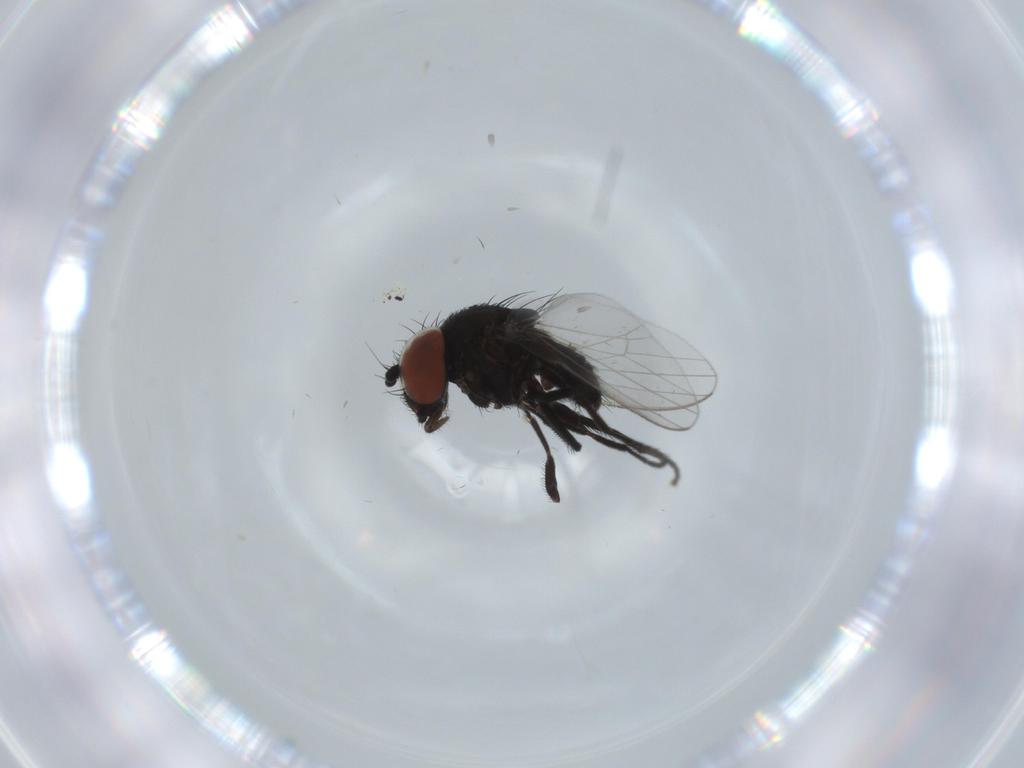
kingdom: Animalia
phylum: Arthropoda
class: Insecta
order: Diptera
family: Milichiidae
